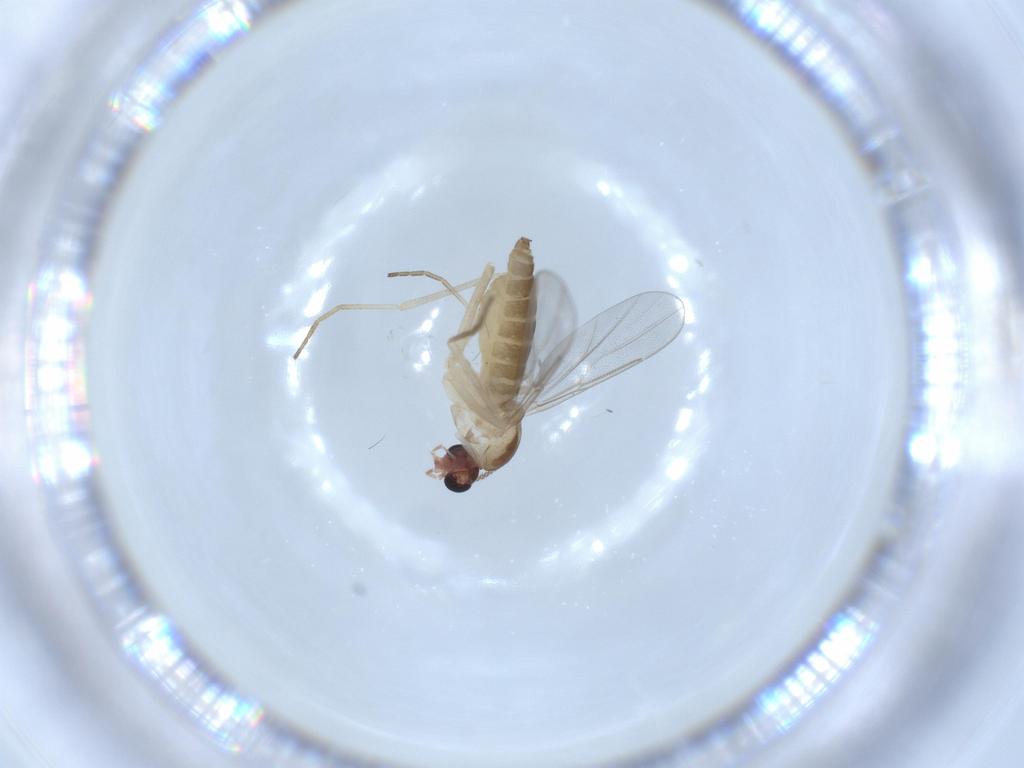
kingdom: Animalia
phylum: Arthropoda
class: Insecta
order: Diptera
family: Cecidomyiidae
